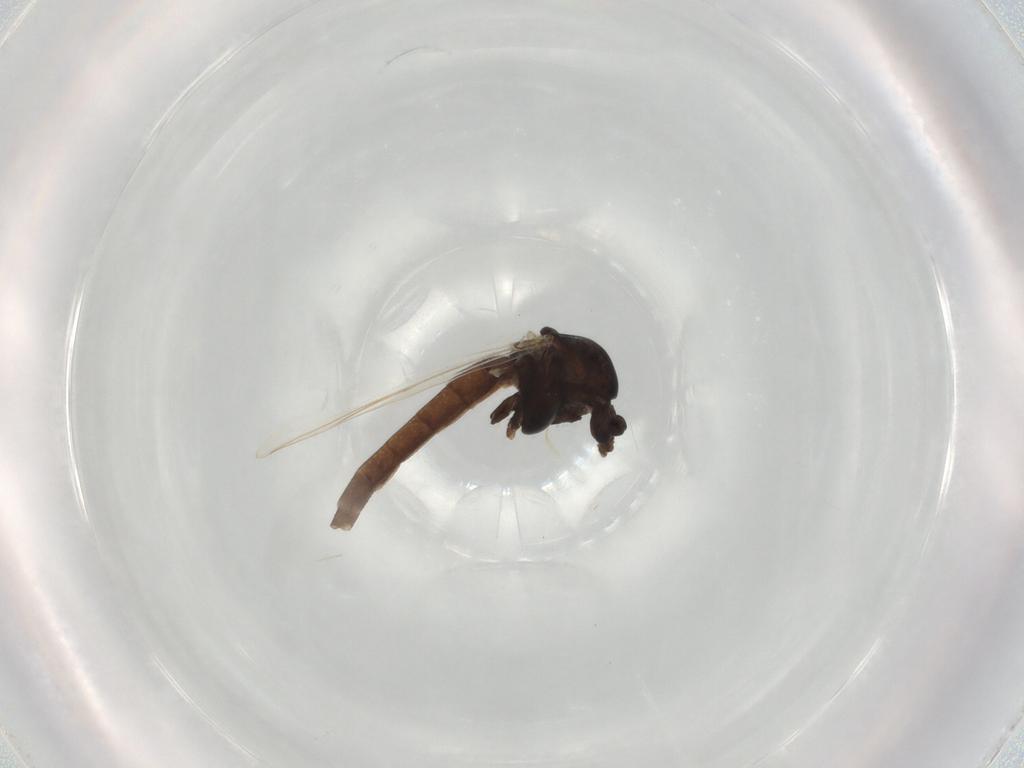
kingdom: Animalia
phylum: Arthropoda
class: Insecta
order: Diptera
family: Chironomidae
